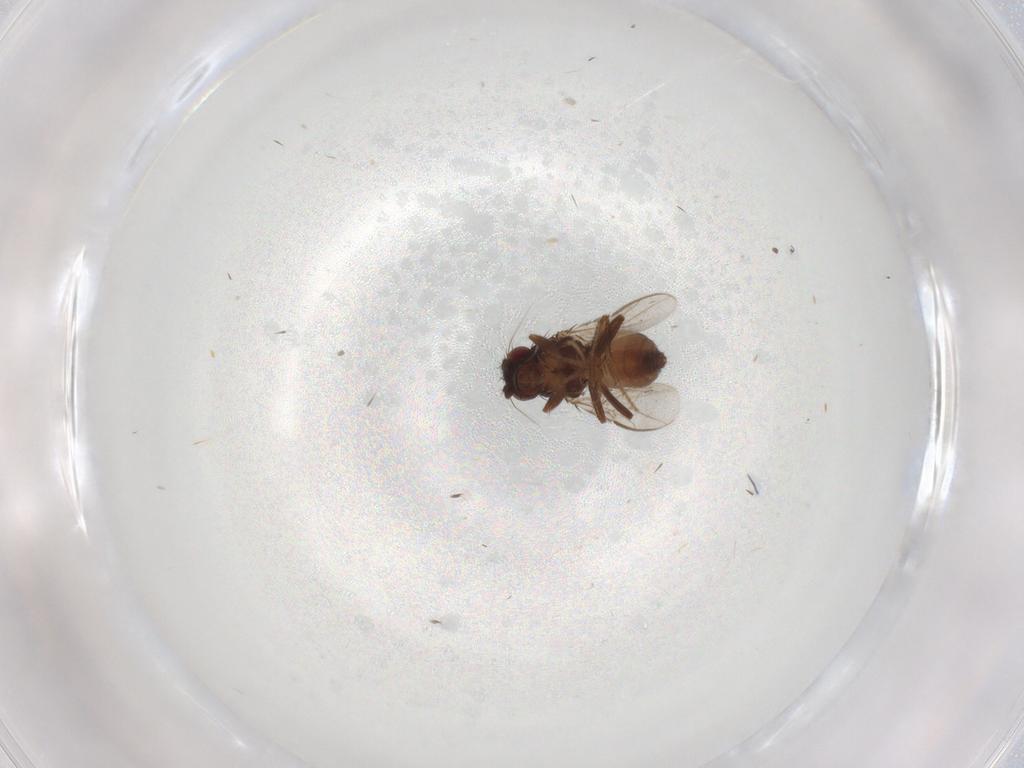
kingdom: Animalia
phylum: Arthropoda
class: Insecta
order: Diptera
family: Sphaeroceridae
